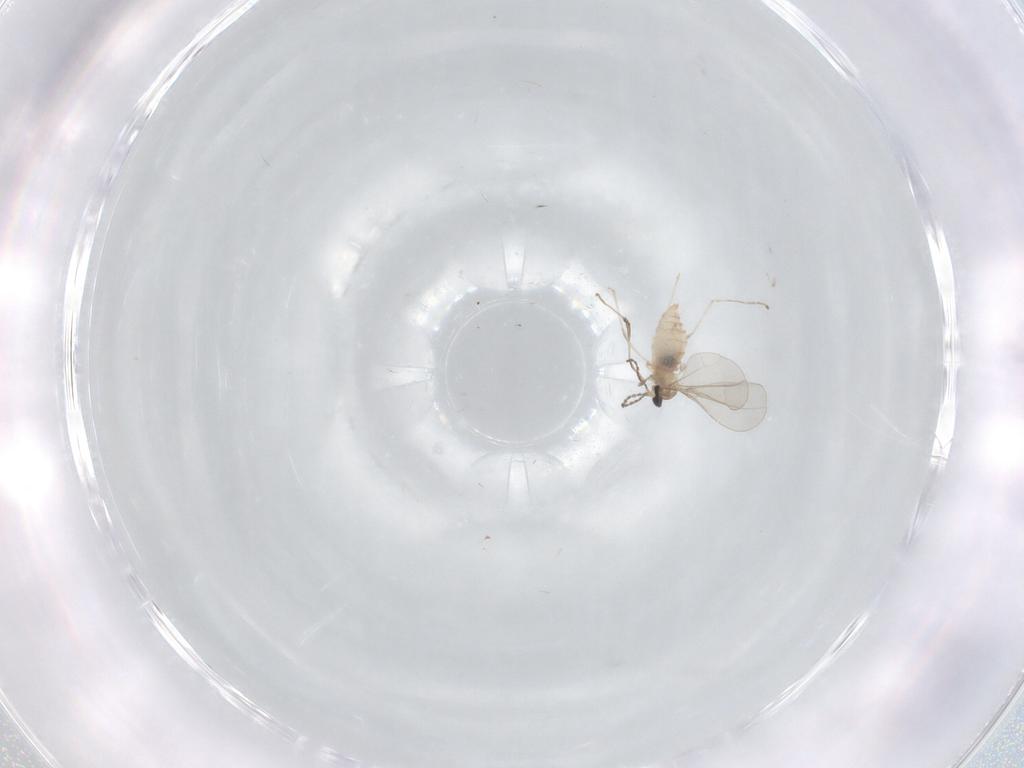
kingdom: Animalia
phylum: Arthropoda
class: Insecta
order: Diptera
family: Cecidomyiidae
